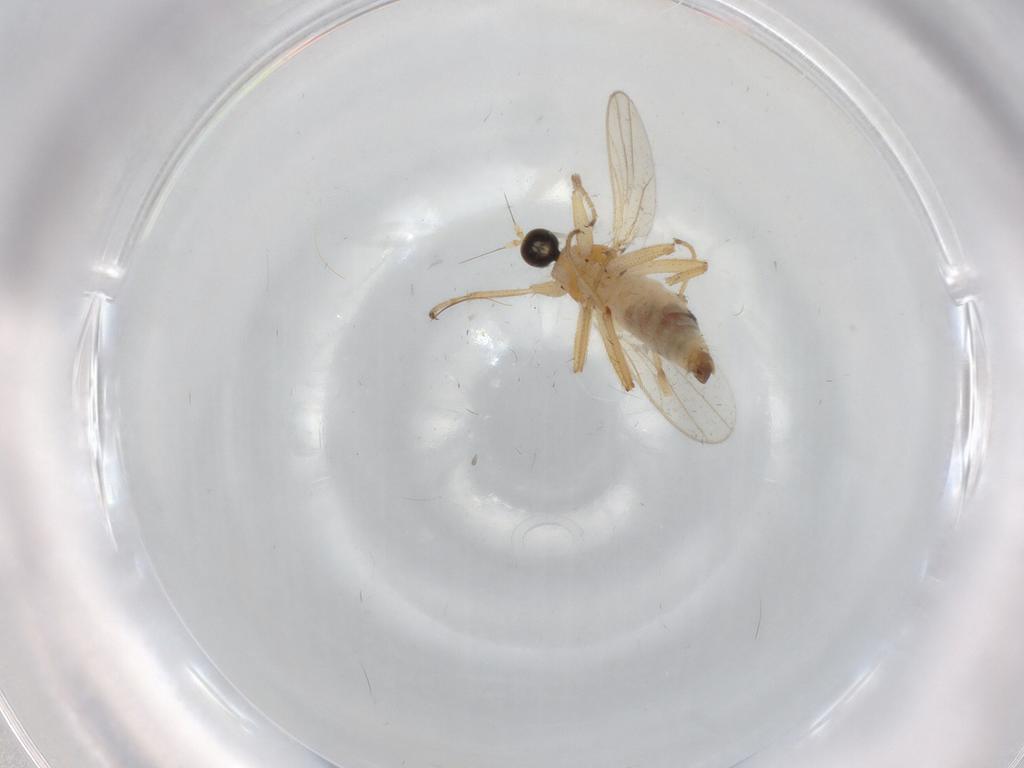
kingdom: Animalia
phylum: Arthropoda
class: Insecta
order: Diptera
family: Hybotidae
